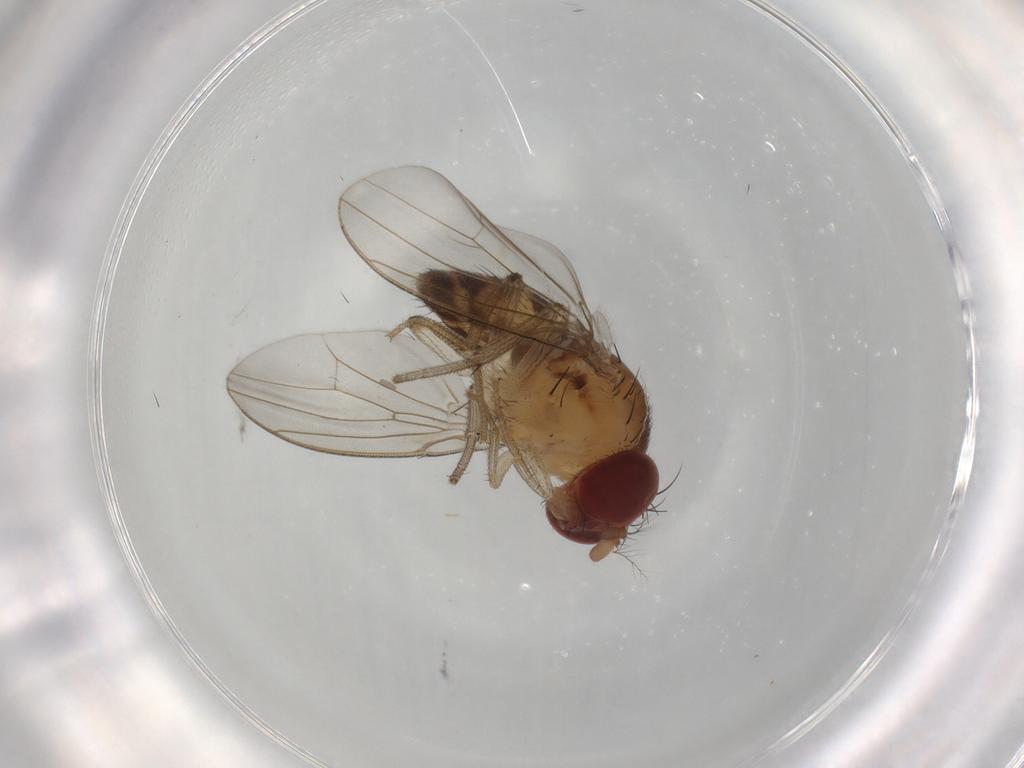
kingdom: Animalia
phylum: Arthropoda
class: Insecta
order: Diptera
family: Drosophilidae
